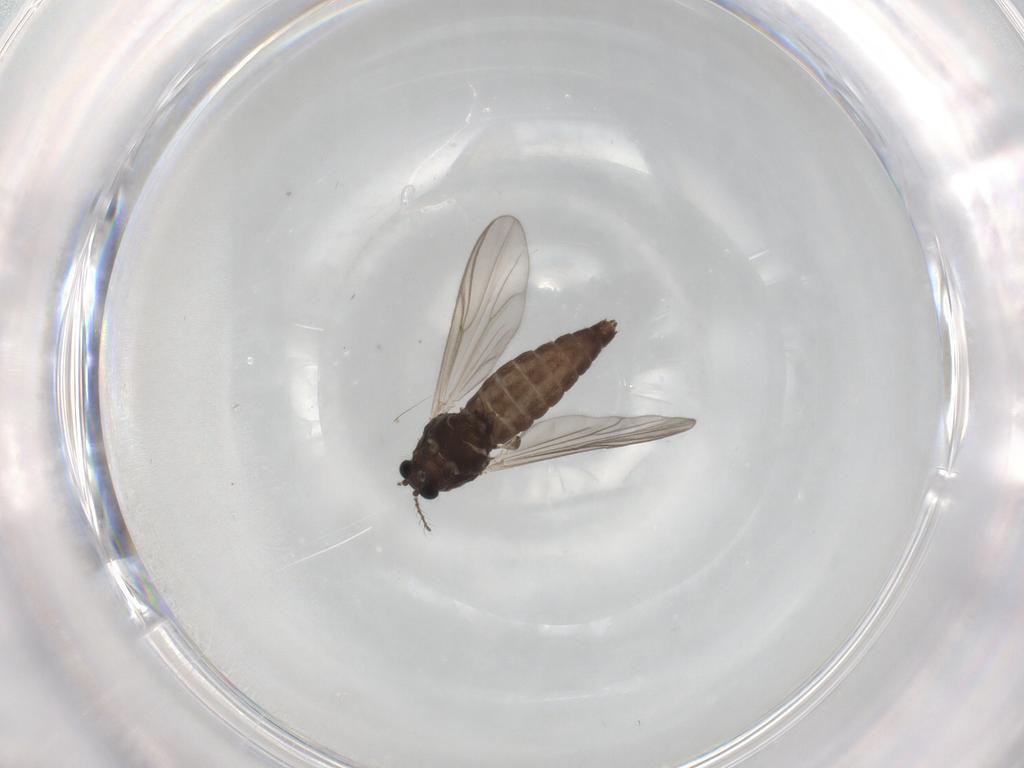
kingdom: Animalia
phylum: Arthropoda
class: Insecta
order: Diptera
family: Chironomidae
